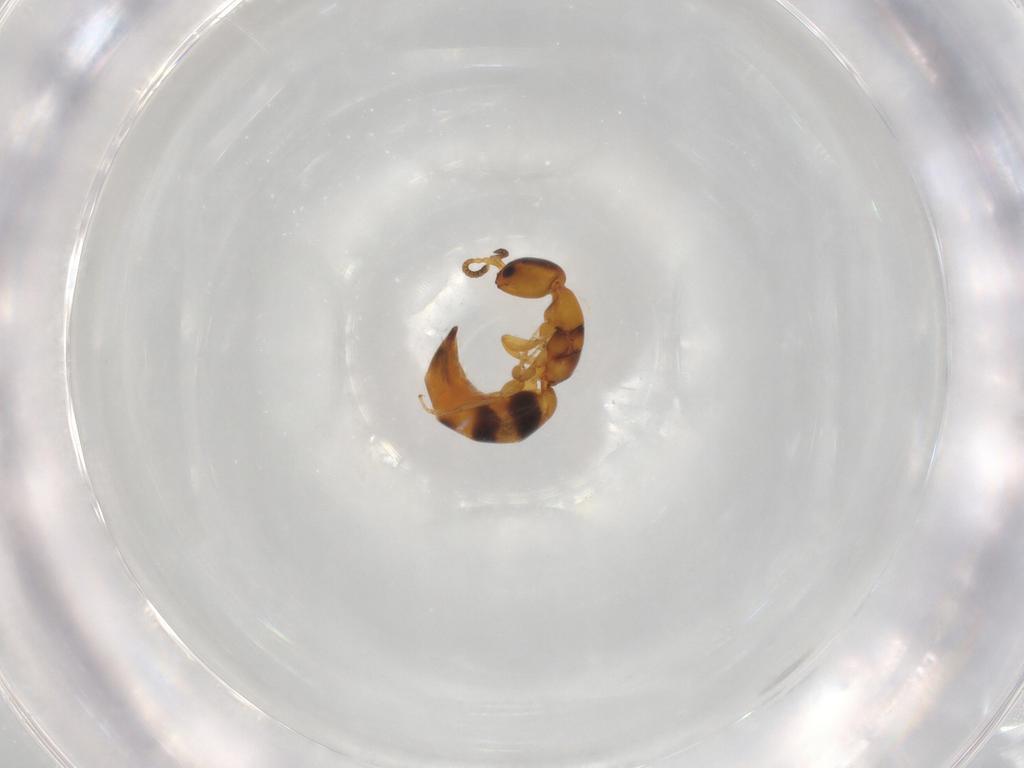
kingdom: Animalia
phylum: Arthropoda
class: Insecta
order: Hymenoptera
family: Bethylidae
